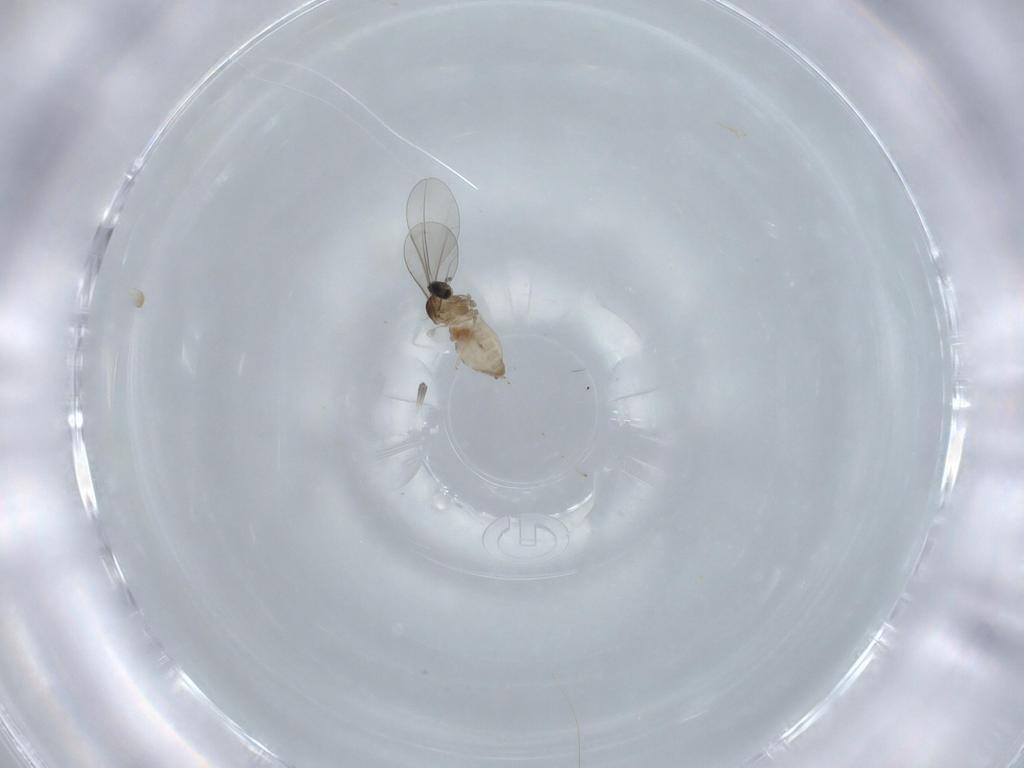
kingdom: Animalia
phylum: Arthropoda
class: Insecta
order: Diptera
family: Cecidomyiidae
